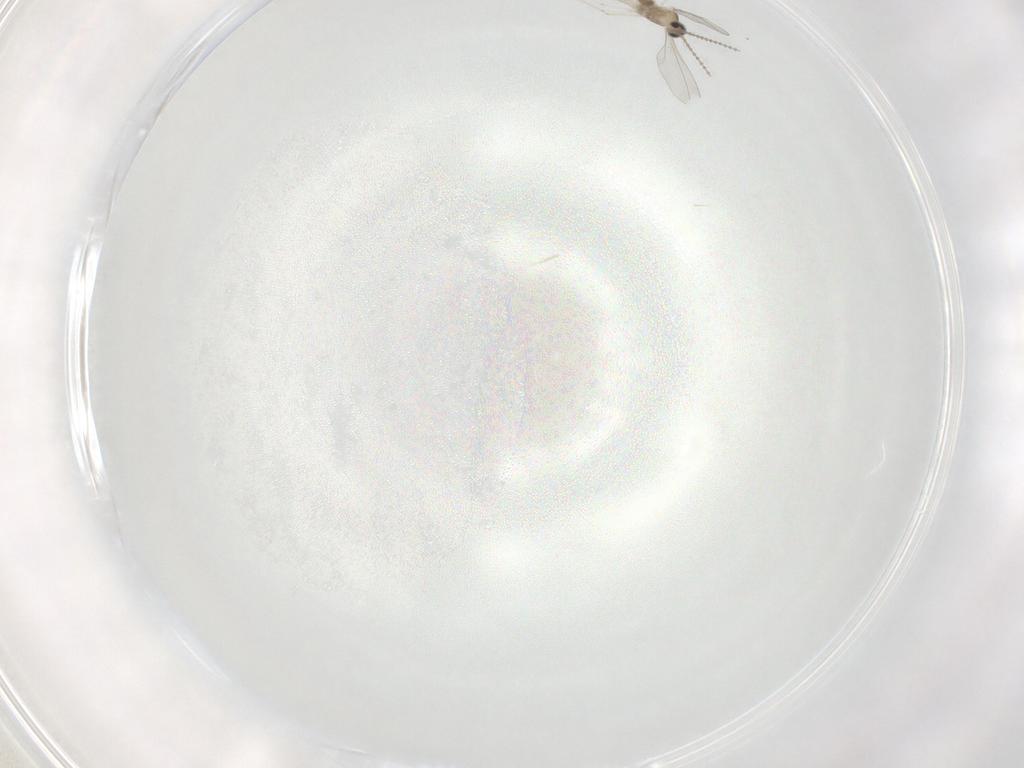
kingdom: Animalia
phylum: Arthropoda
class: Insecta
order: Diptera
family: Cecidomyiidae
